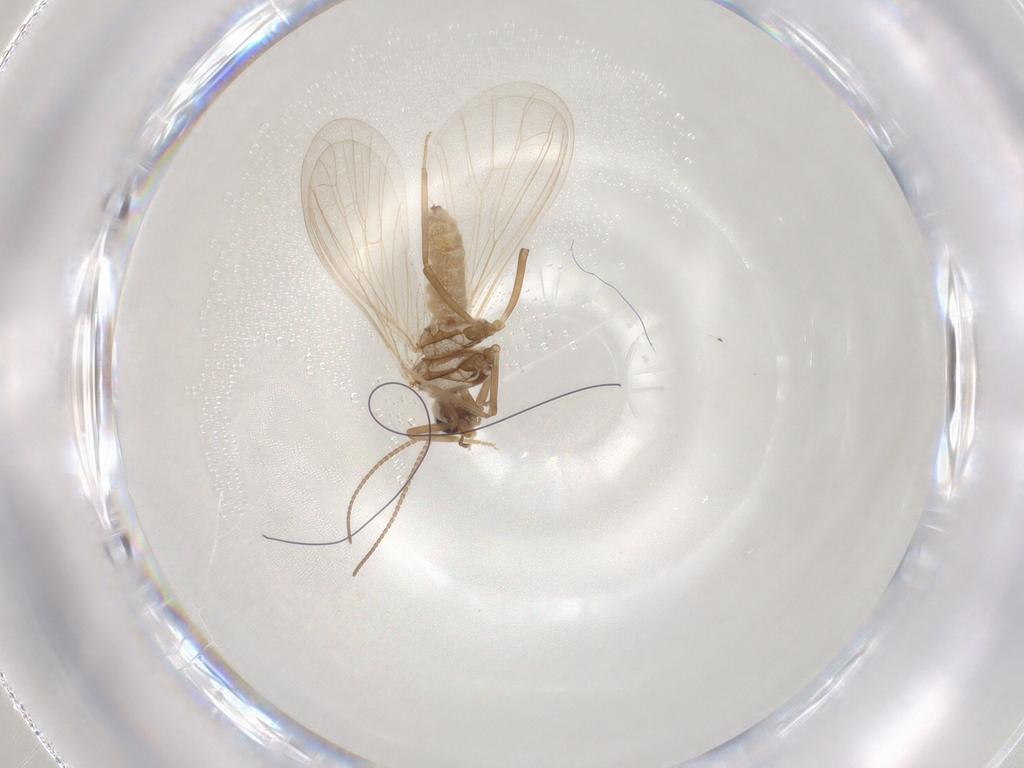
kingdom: Animalia
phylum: Arthropoda
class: Insecta
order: Neuroptera
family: Coniopterygidae
